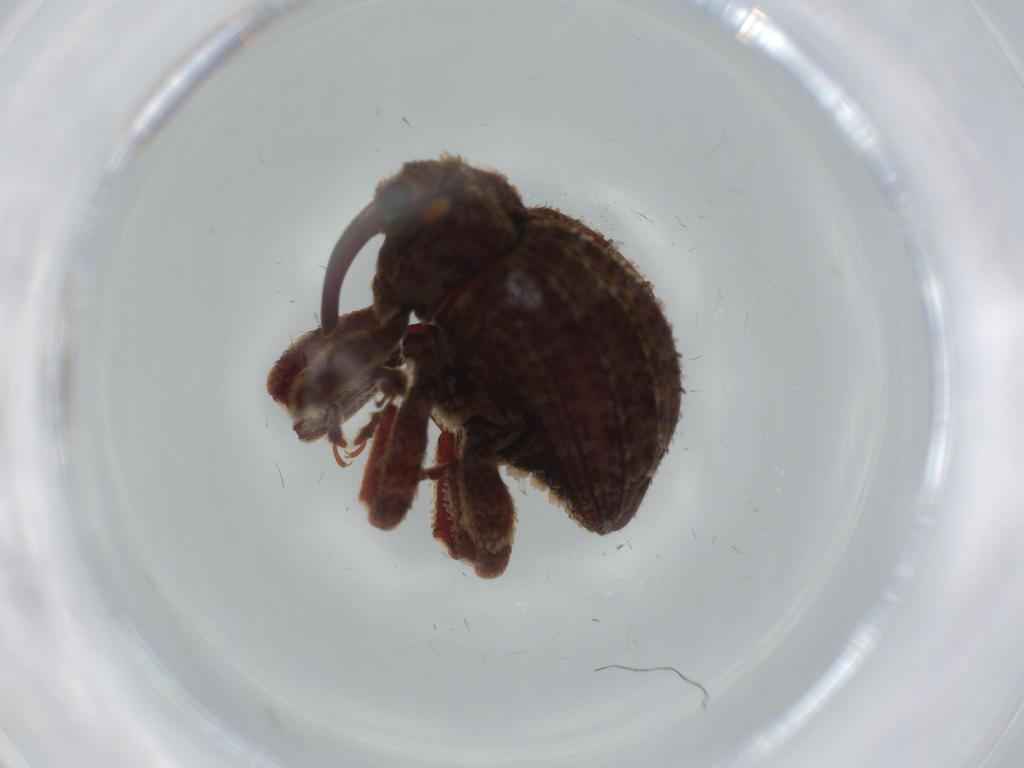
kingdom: Animalia
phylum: Arthropoda
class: Insecta
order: Coleoptera
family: Curculionidae
